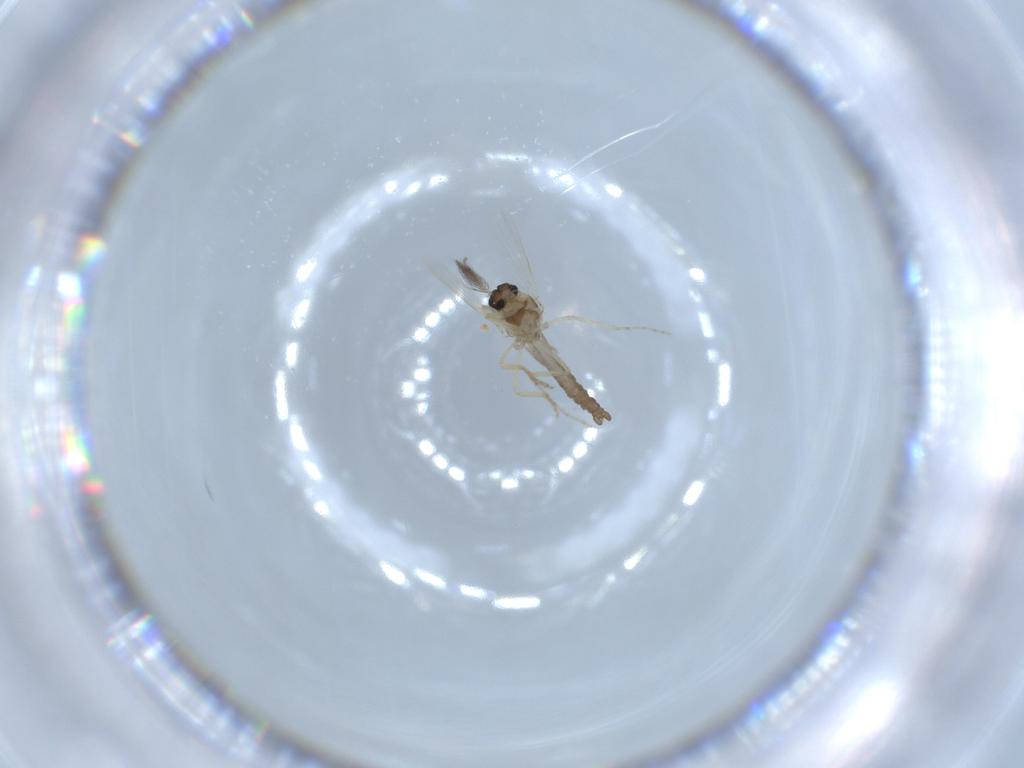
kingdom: Animalia
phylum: Arthropoda
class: Insecta
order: Diptera
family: Ceratopogonidae
